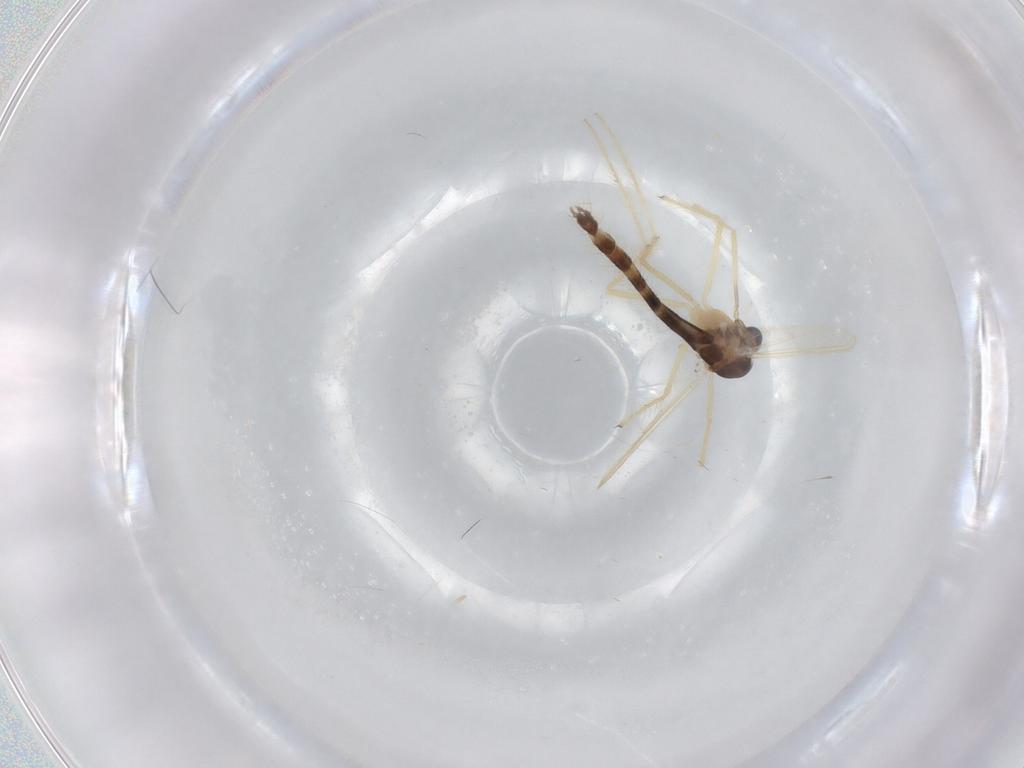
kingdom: Animalia
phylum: Arthropoda
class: Insecta
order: Diptera
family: Chironomidae
